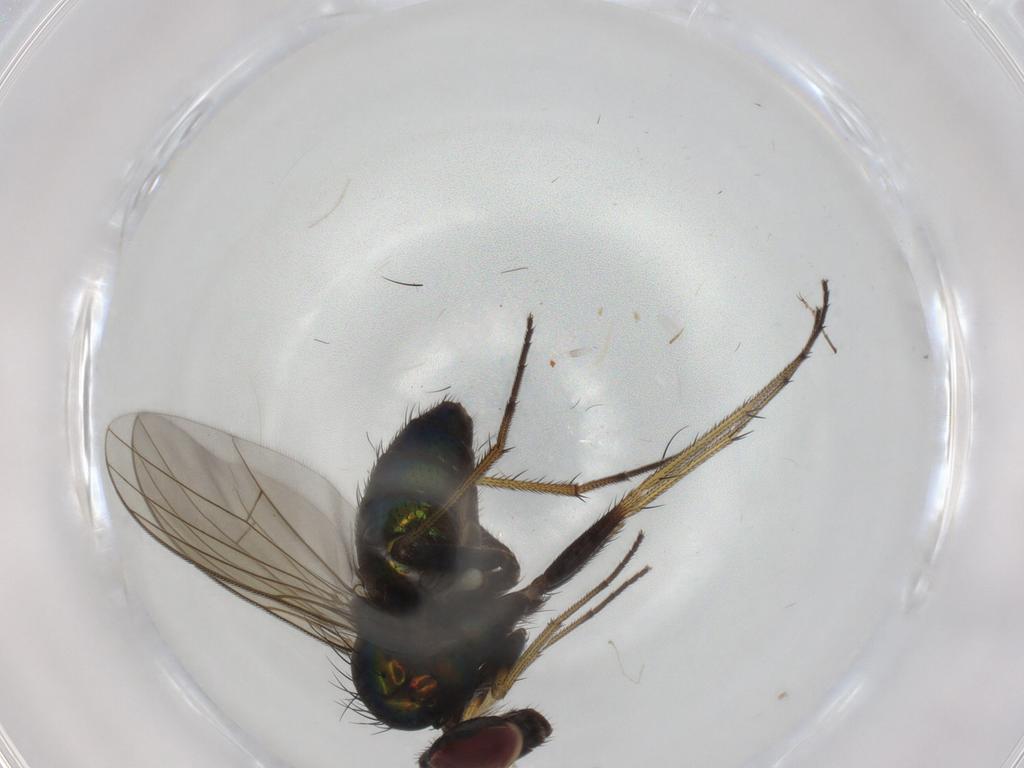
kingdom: Animalia
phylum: Arthropoda
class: Insecta
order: Diptera
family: Dolichopodidae
